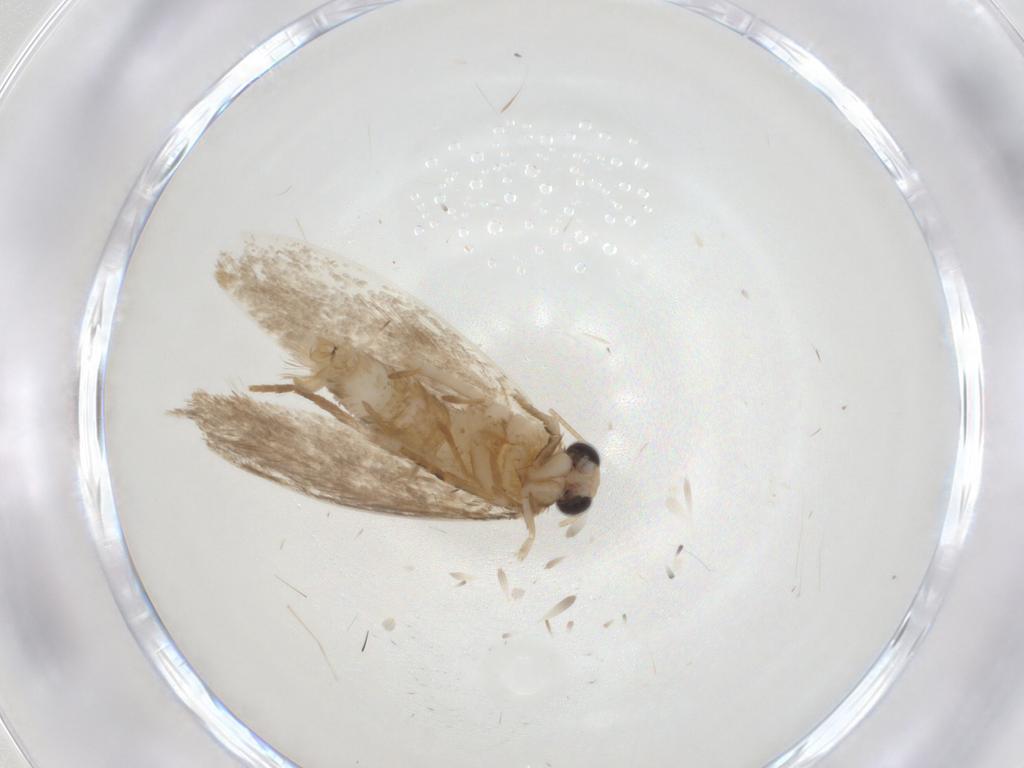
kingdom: Animalia
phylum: Arthropoda
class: Insecta
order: Lepidoptera
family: Tineidae
